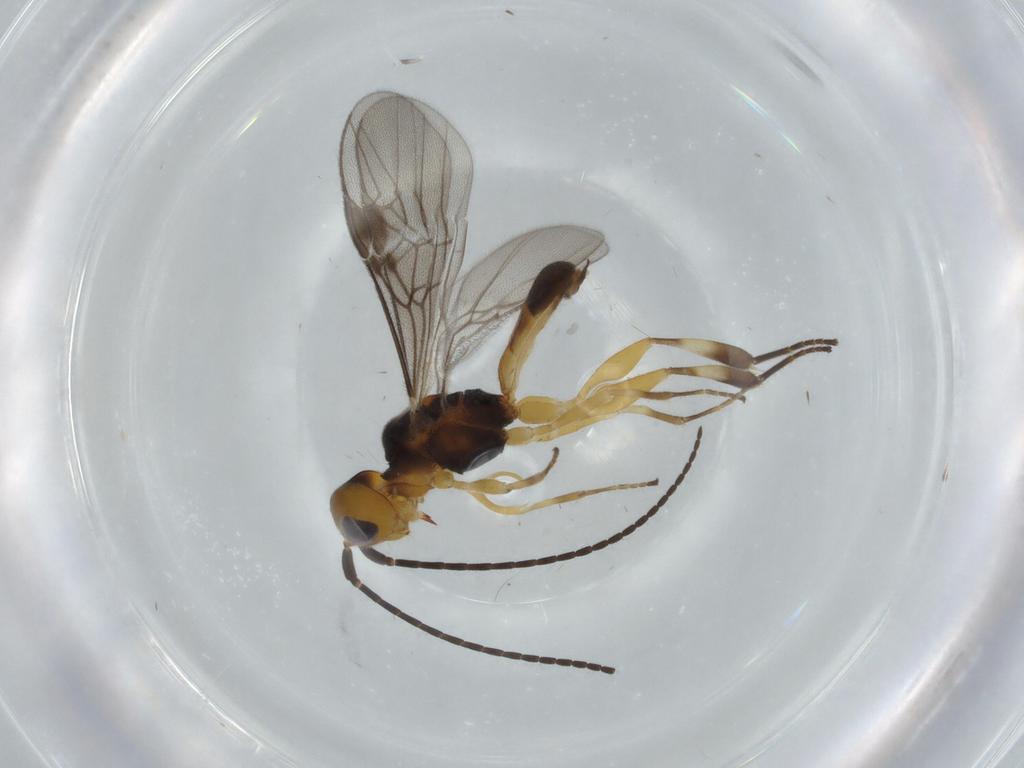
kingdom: Animalia
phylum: Arthropoda
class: Insecta
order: Hymenoptera
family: Braconidae
